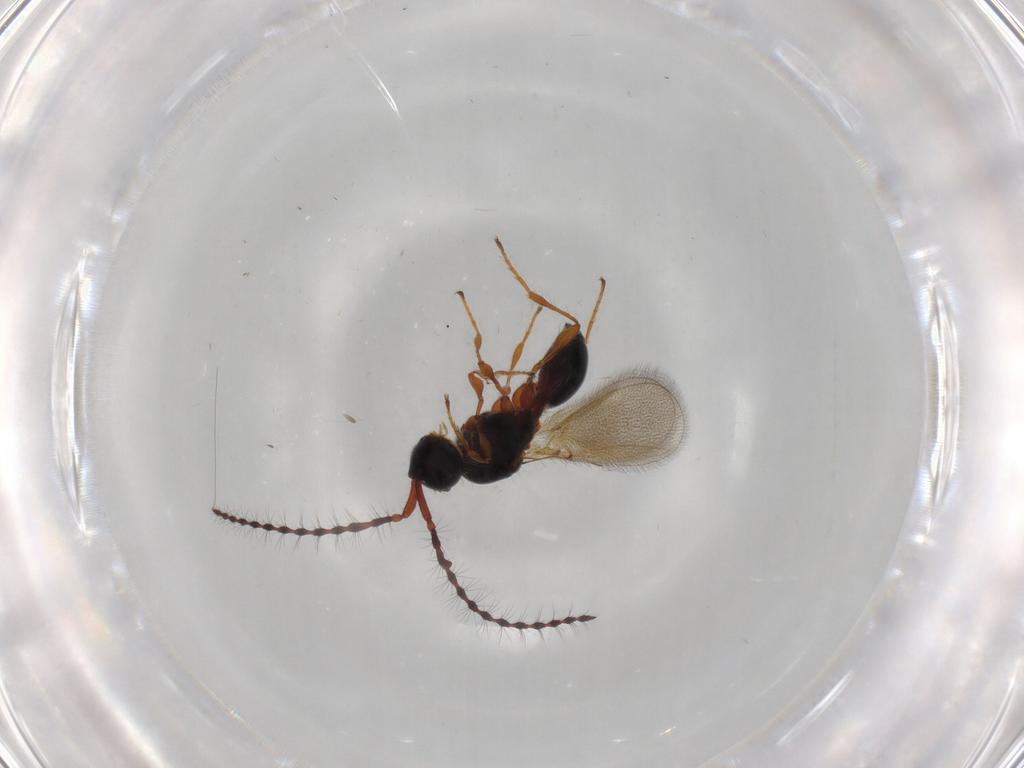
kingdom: Animalia
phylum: Arthropoda
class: Insecta
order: Hymenoptera
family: Diapriidae
